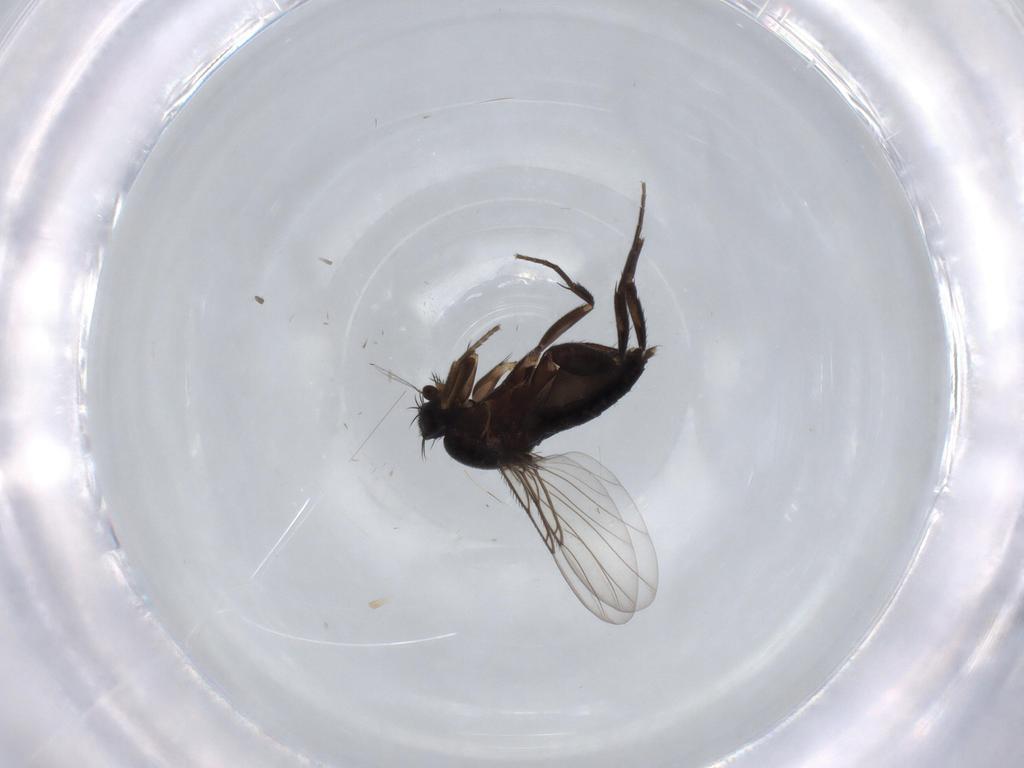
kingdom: Animalia
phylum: Arthropoda
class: Insecta
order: Diptera
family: Phoridae
